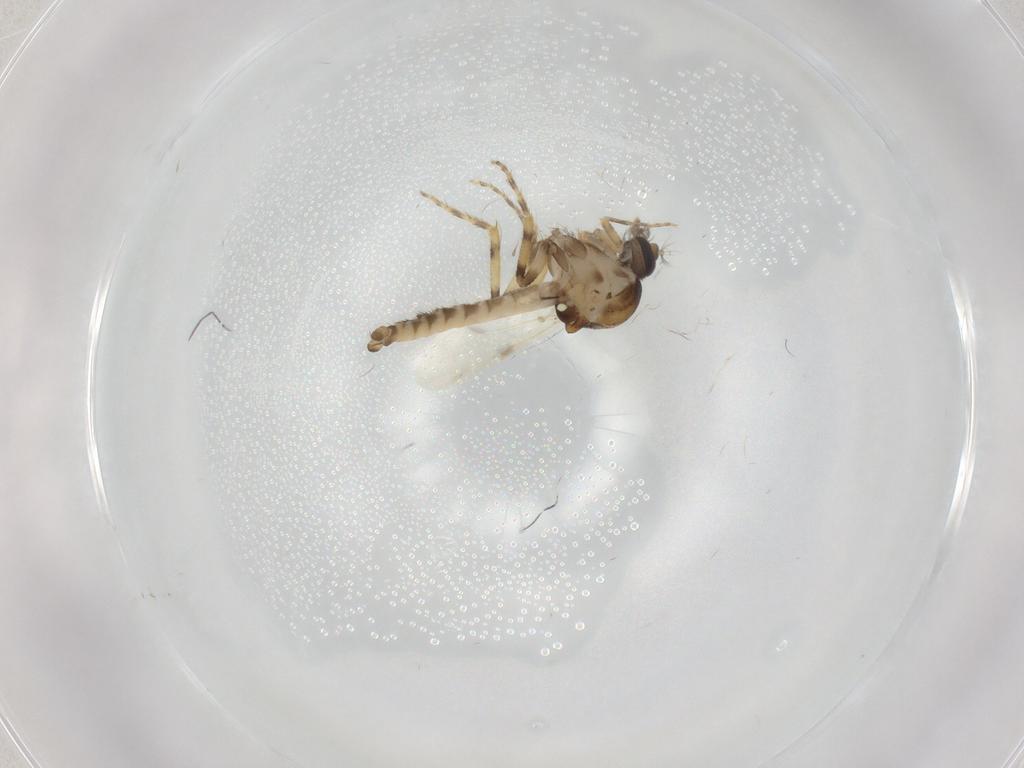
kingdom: Animalia
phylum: Arthropoda
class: Insecta
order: Diptera
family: Ceratopogonidae
